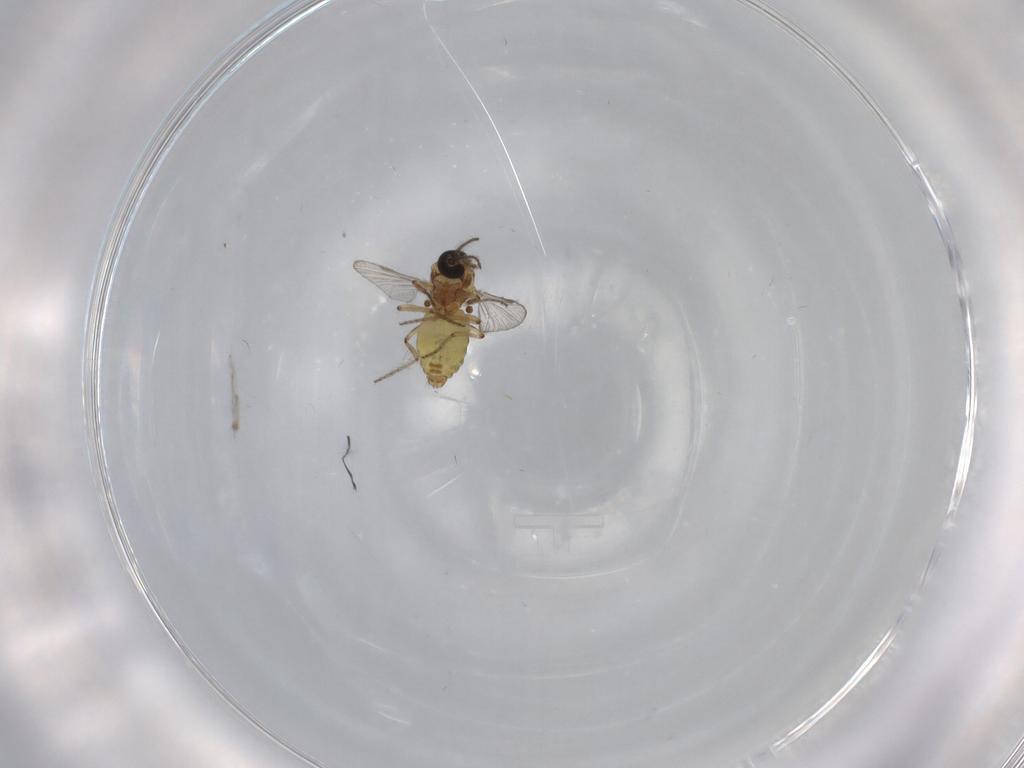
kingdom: Animalia
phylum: Arthropoda
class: Insecta
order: Diptera
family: Ceratopogonidae
